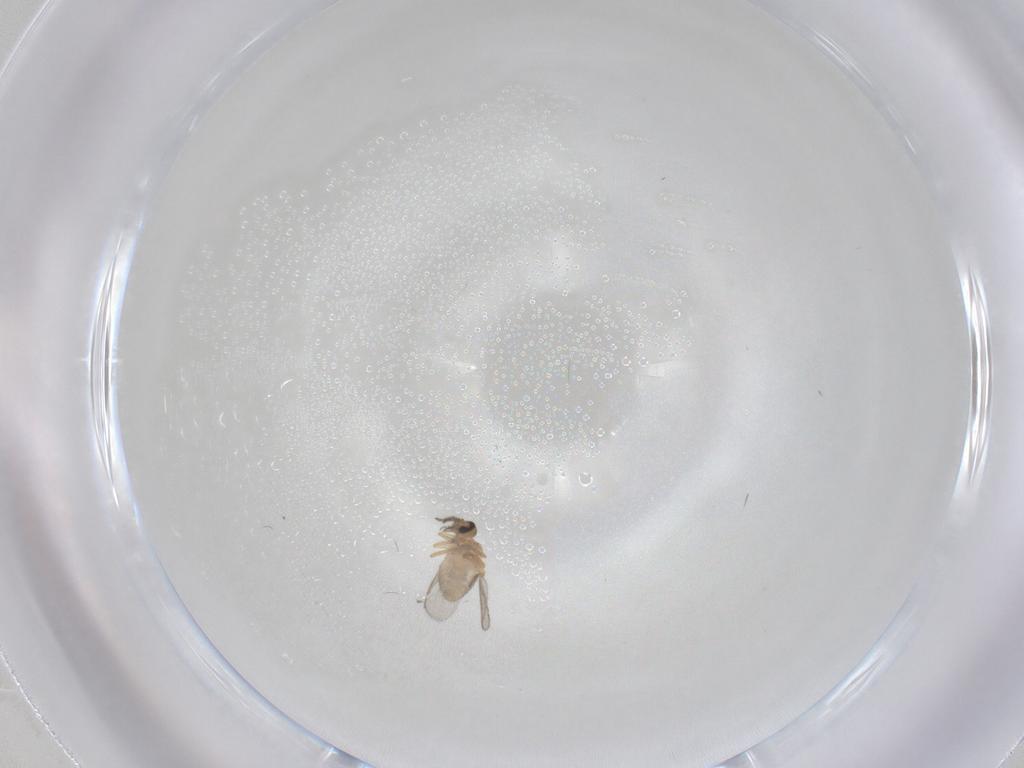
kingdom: Animalia
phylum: Arthropoda
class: Insecta
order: Diptera
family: Ceratopogonidae
